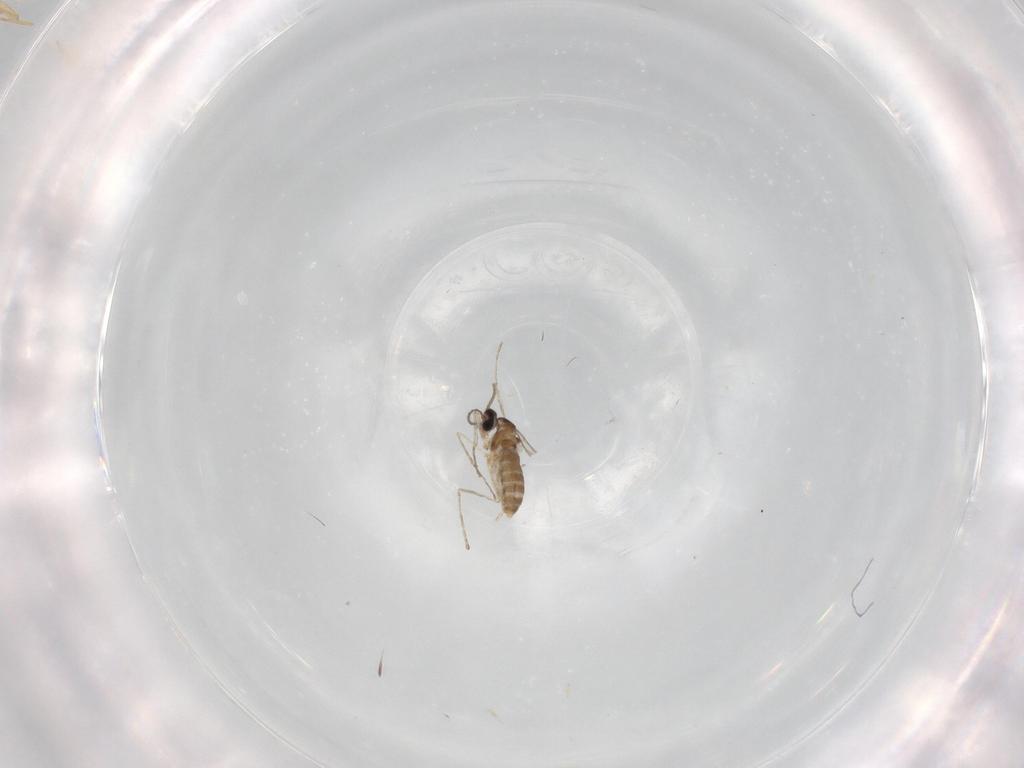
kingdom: Animalia
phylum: Arthropoda
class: Insecta
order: Diptera
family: Cecidomyiidae
